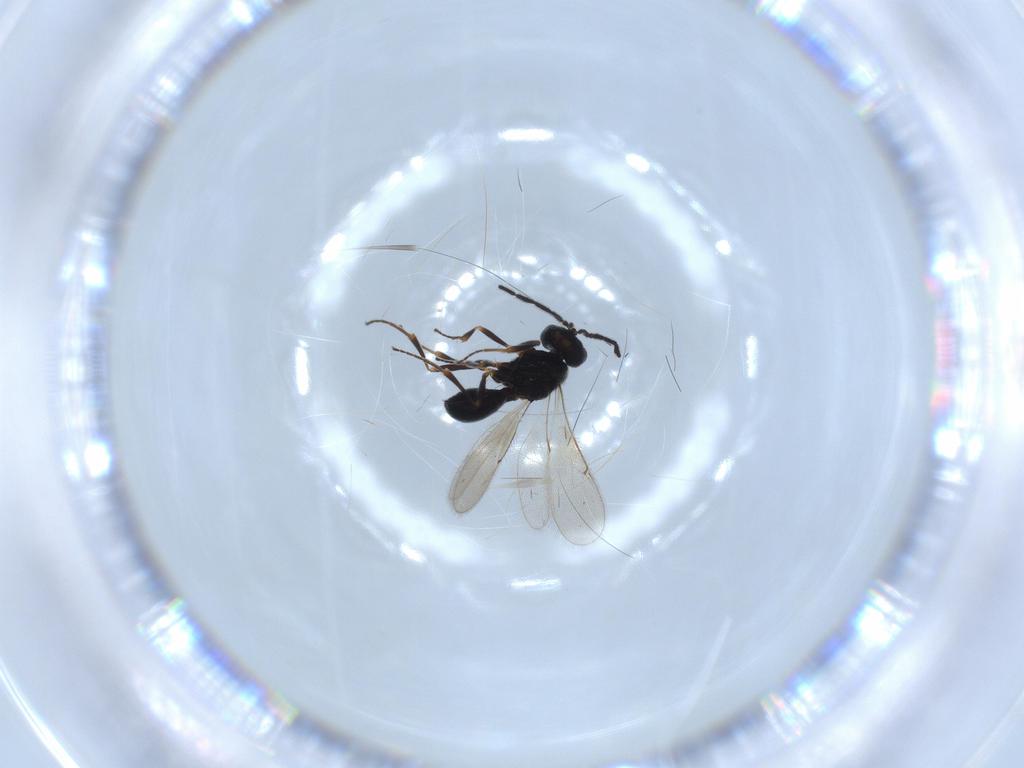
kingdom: Animalia
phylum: Arthropoda
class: Insecta
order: Hymenoptera
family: Scelionidae
